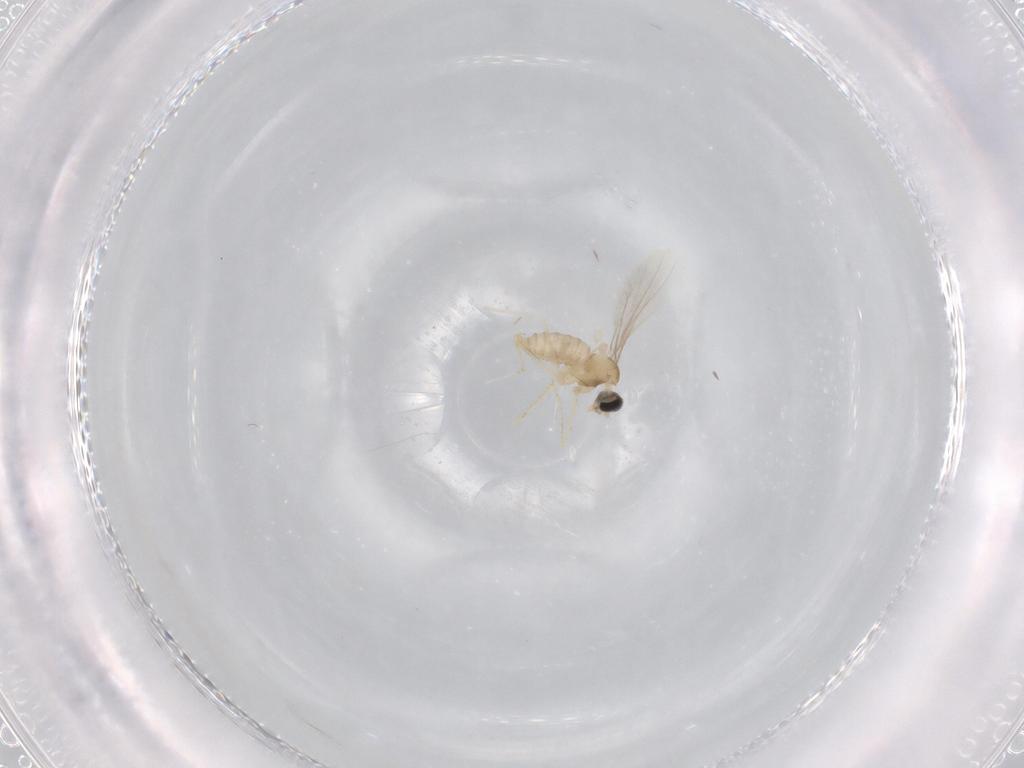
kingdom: Animalia
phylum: Arthropoda
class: Insecta
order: Diptera
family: Cecidomyiidae
